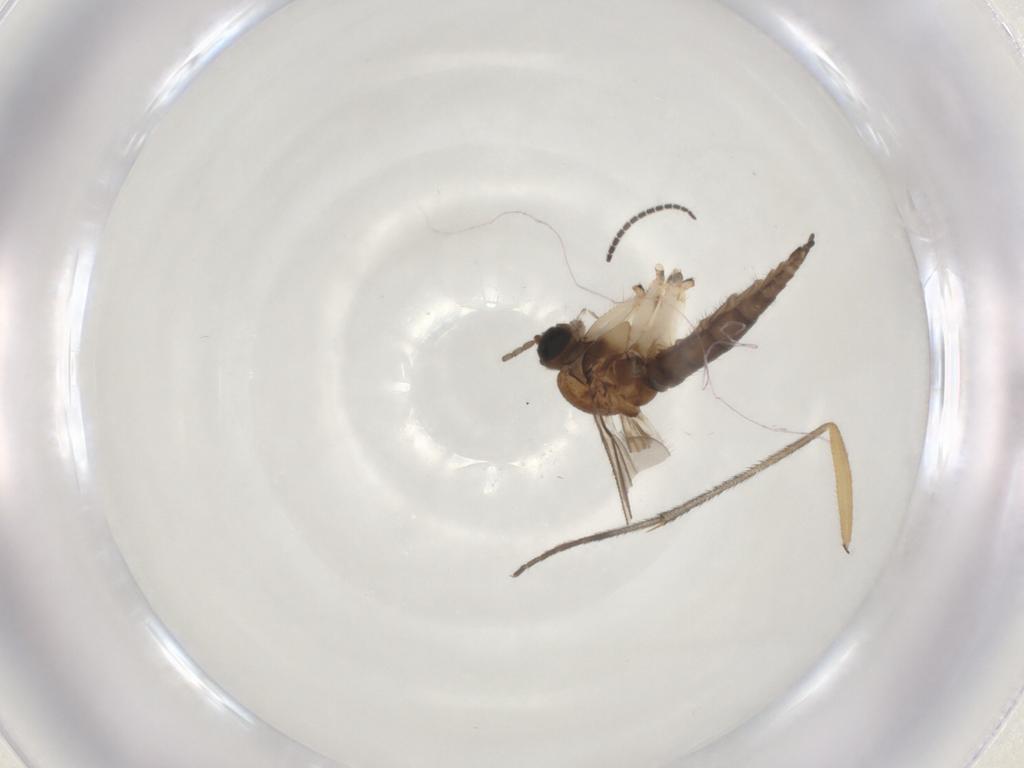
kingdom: Animalia
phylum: Arthropoda
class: Insecta
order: Diptera
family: Sciaridae
